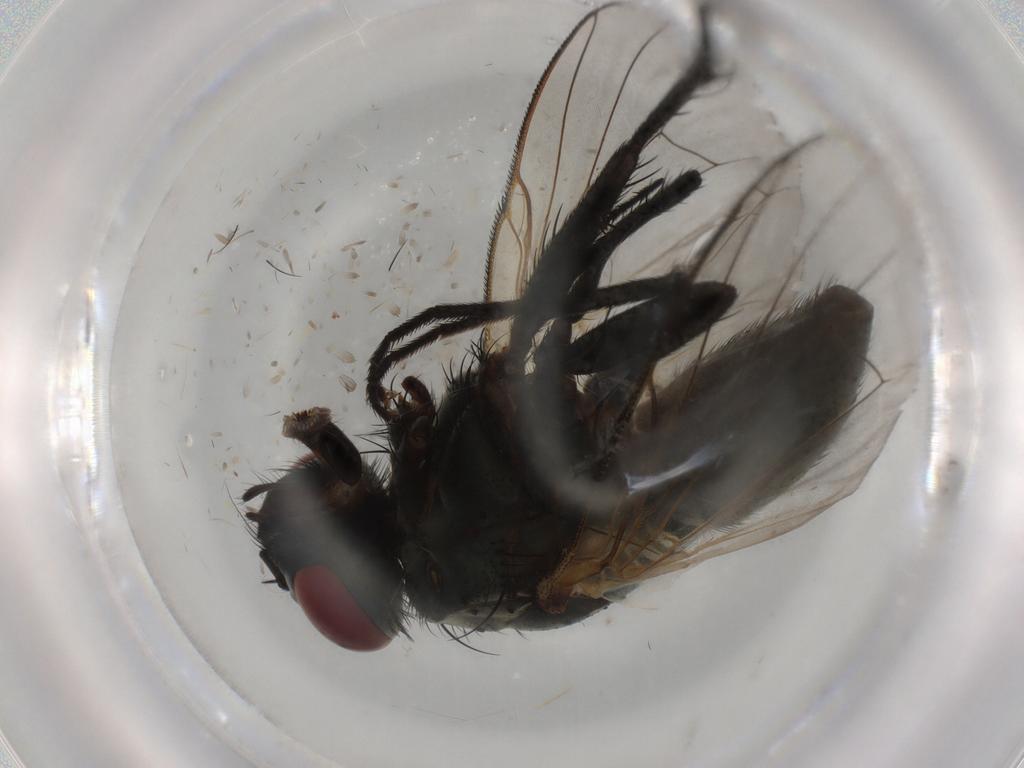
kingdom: Animalia
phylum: Arthropoda
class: Insecta
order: Diptera
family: Muscidae
